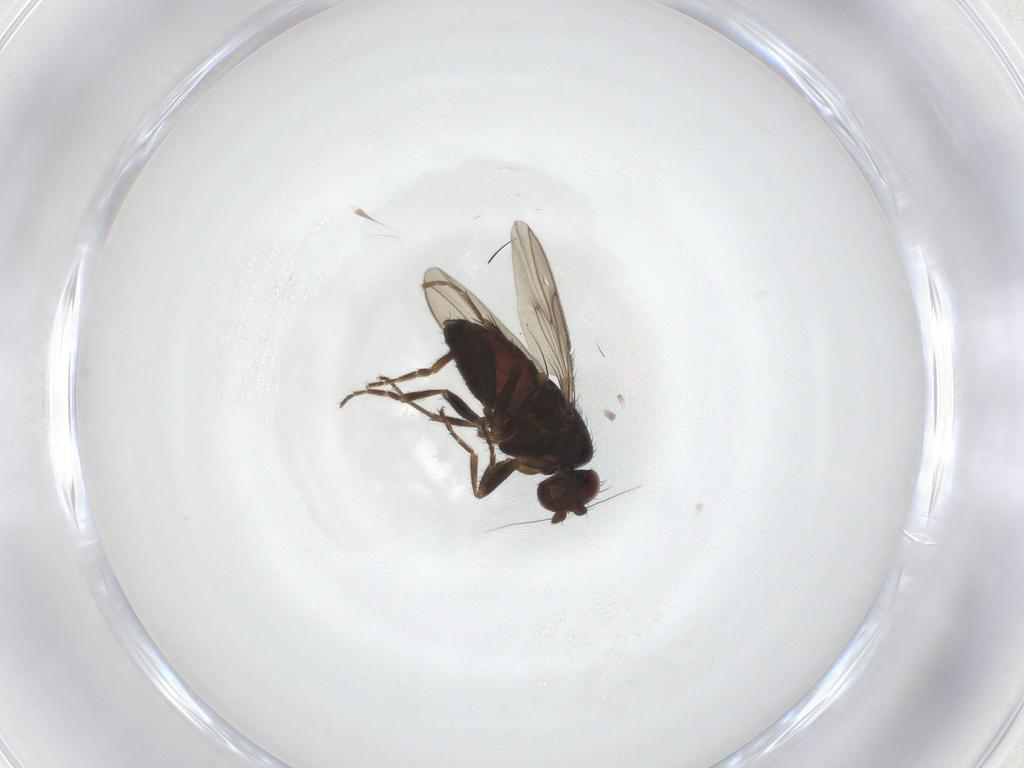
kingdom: Animalia
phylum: Arthropoda
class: Insecta
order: Diptera
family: Sphaeroceridae
